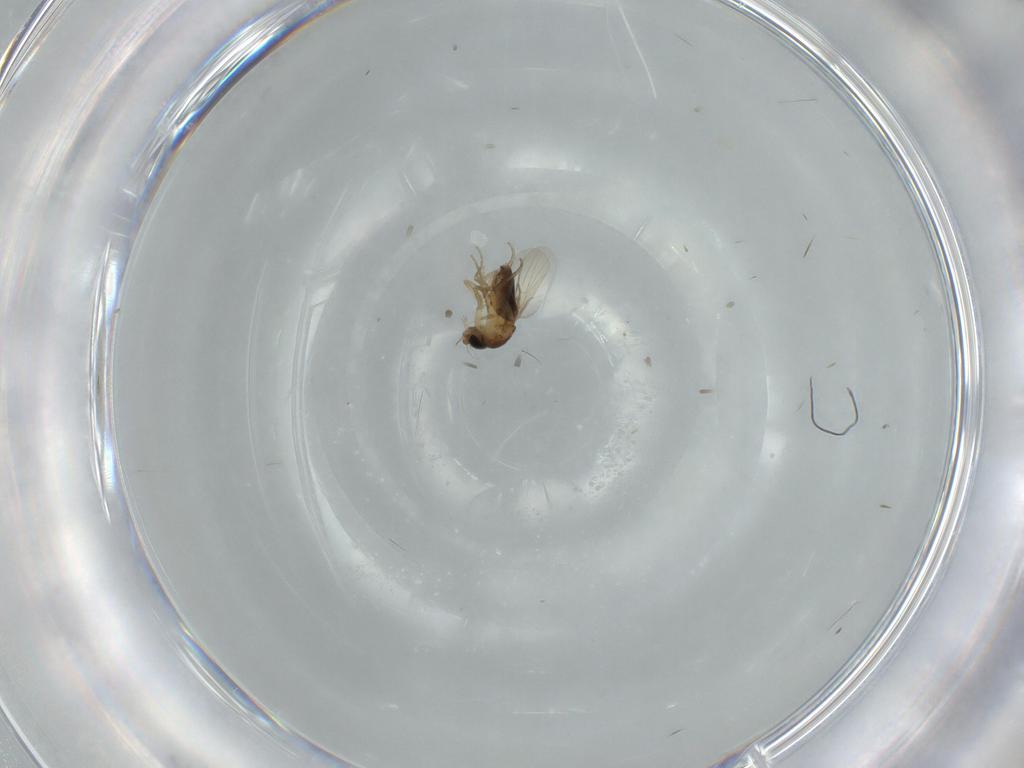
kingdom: Animalia
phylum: Arthropoda
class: Insecta
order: Diptera
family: Phoridae
